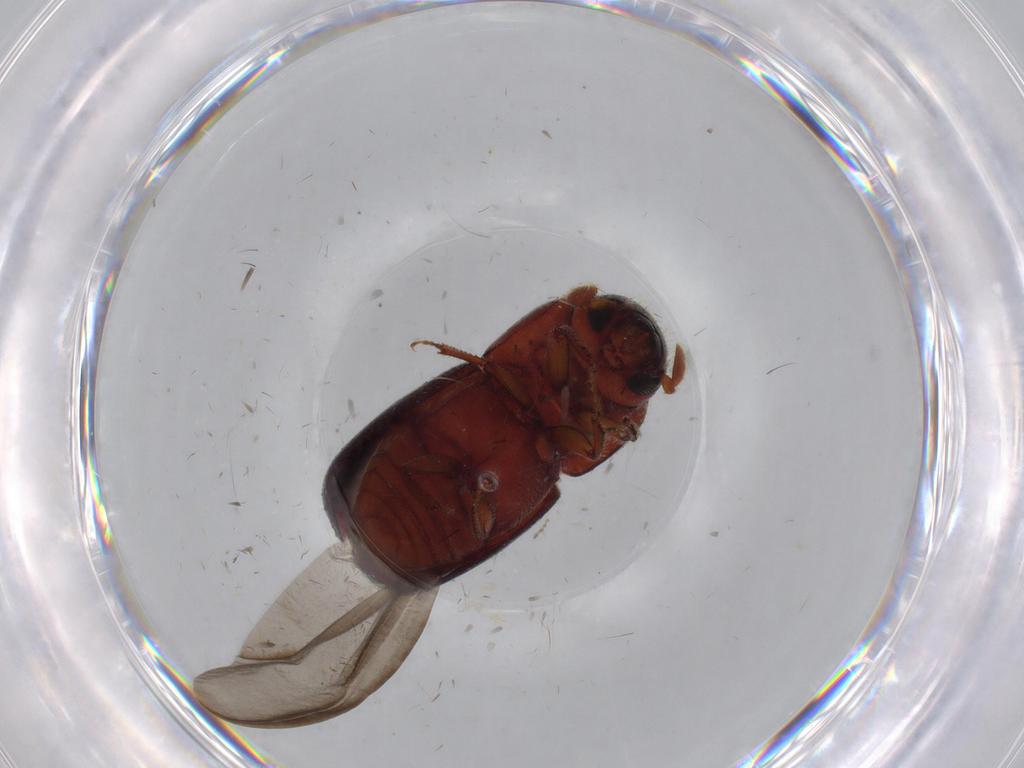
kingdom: Animalia
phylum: Arthropoda
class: Insecta
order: Coleoptera
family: Curculionidae
